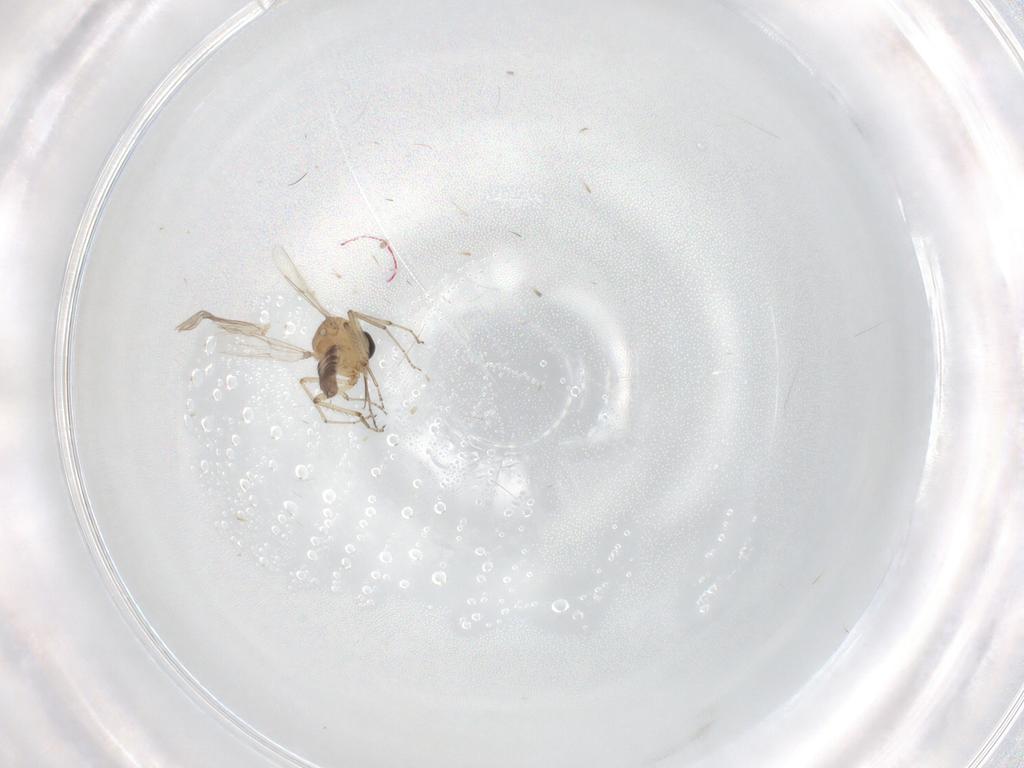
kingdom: Animalia
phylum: Arthropoda
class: Insecta
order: Diptera
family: Ceratopogonidae
